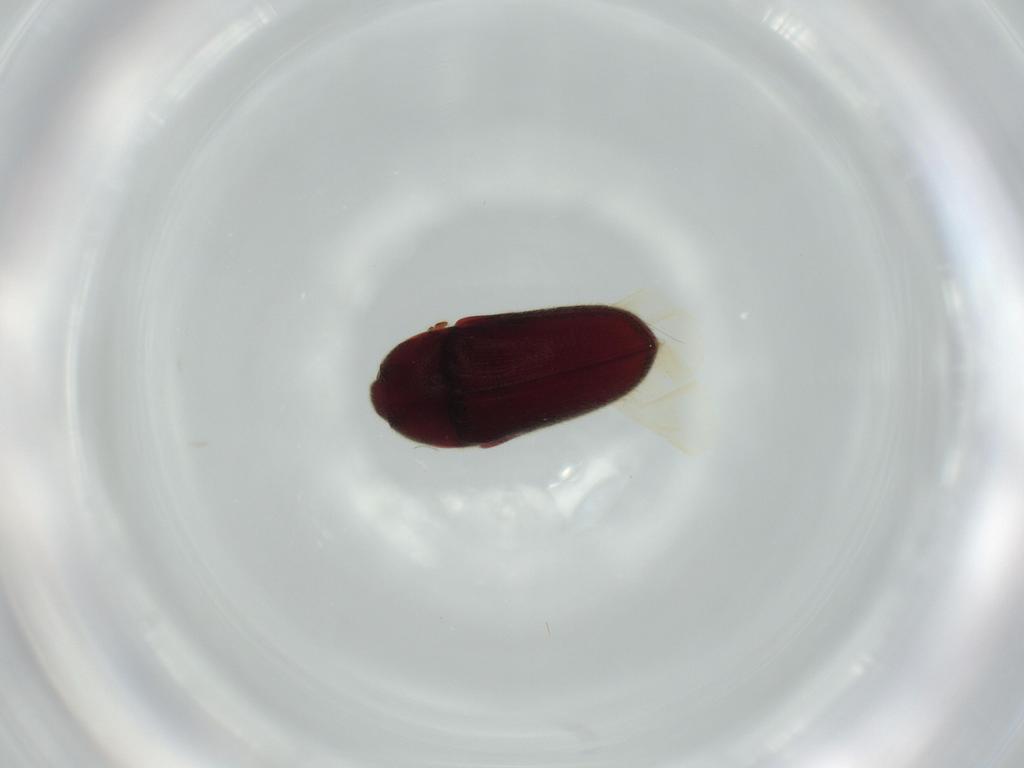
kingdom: Animalia
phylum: Arthropoda
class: Insecta
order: Coleoptera
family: Throscidae
